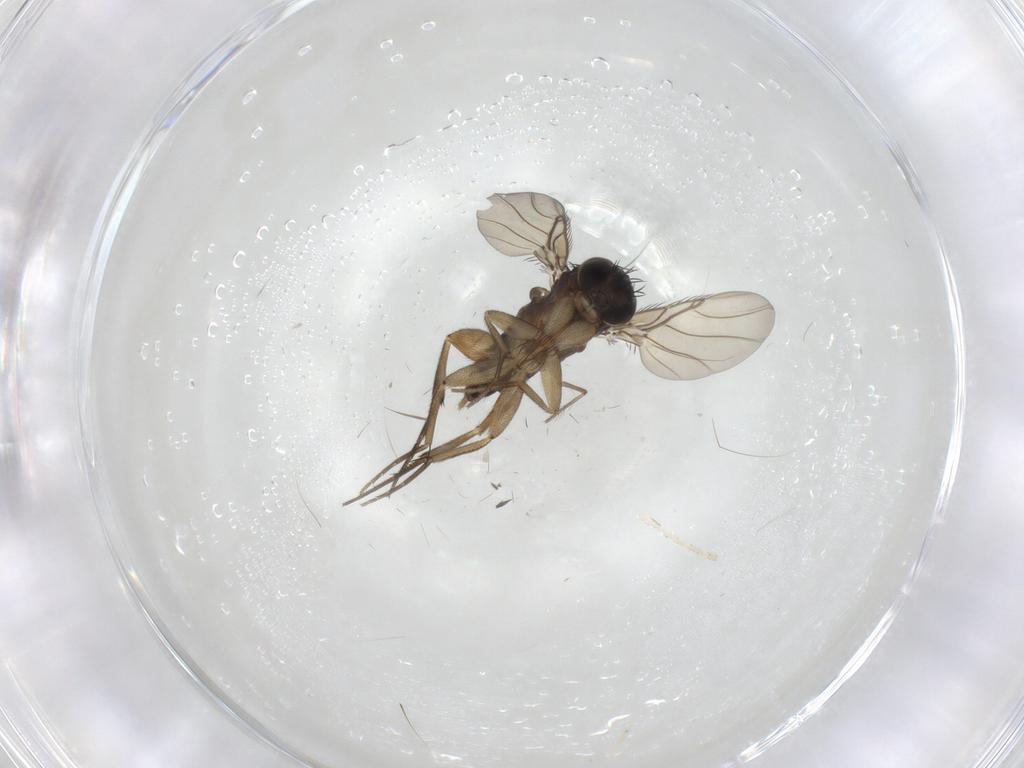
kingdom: Animalia
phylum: Arthropoda
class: Insecta
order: Diptera
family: Phoridae
